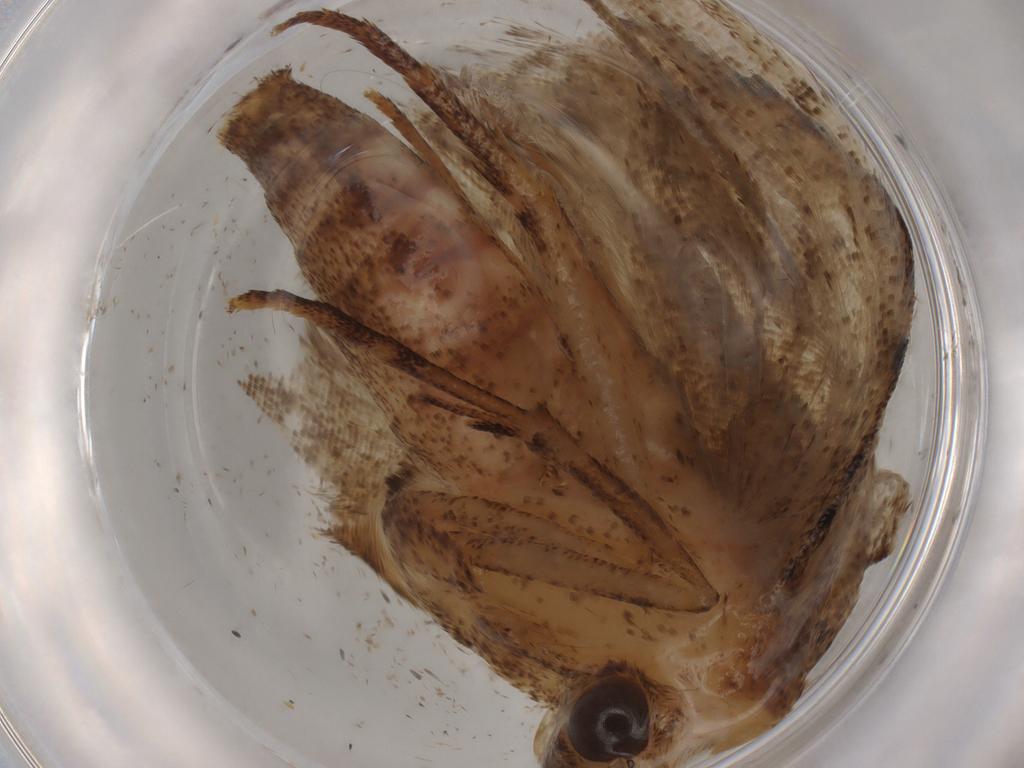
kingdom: Animalia
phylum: Arthropoda
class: Insecta
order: Lepidoptera
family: Erebidae
